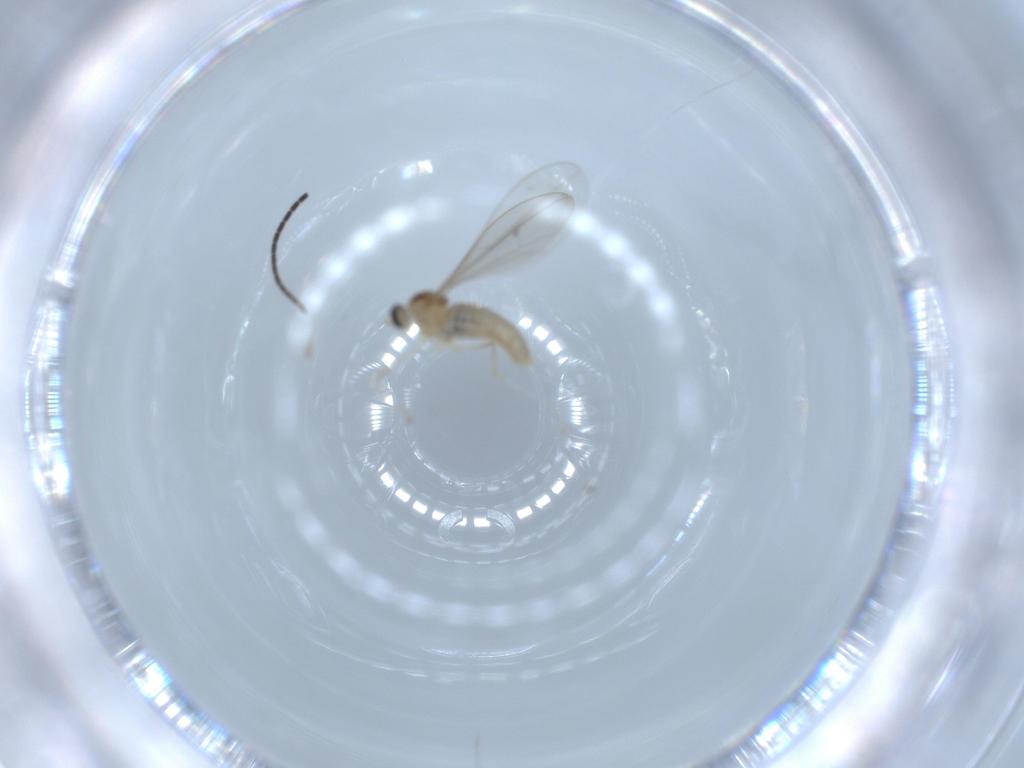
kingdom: Animalia
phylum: Arthropoda
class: Insecta
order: Diptera
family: Cecidomyiidae
